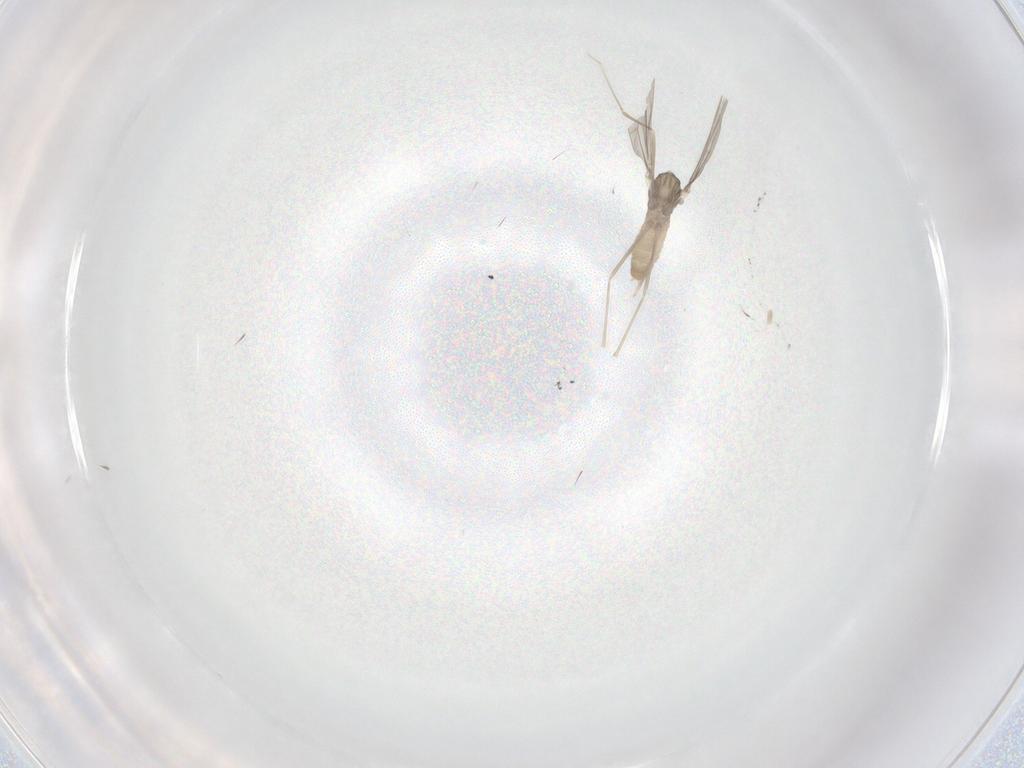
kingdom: Animalia
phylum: Arthropoda
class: Insecta
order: Diptera
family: Cecidomyiidae
